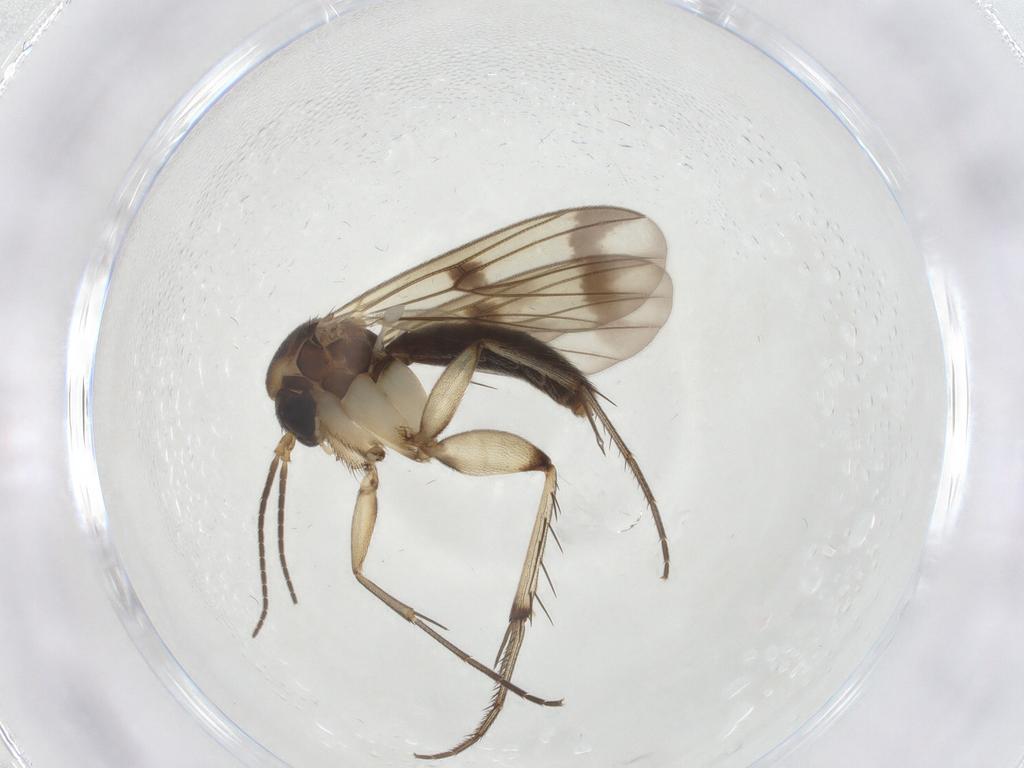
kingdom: Animalia
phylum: Arthropoda
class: Insecta
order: Diptera
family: Mycetophilidae
